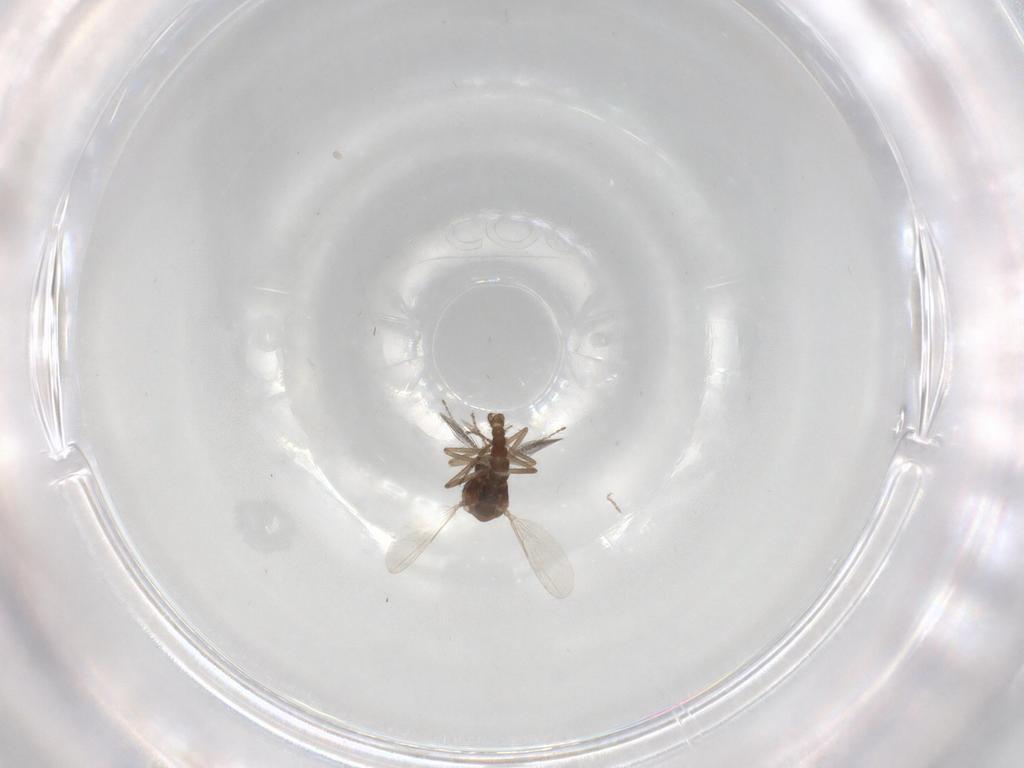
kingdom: Animalia
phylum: Arthropoda
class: Insecta
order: Diptera
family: Ceratopogonidae
